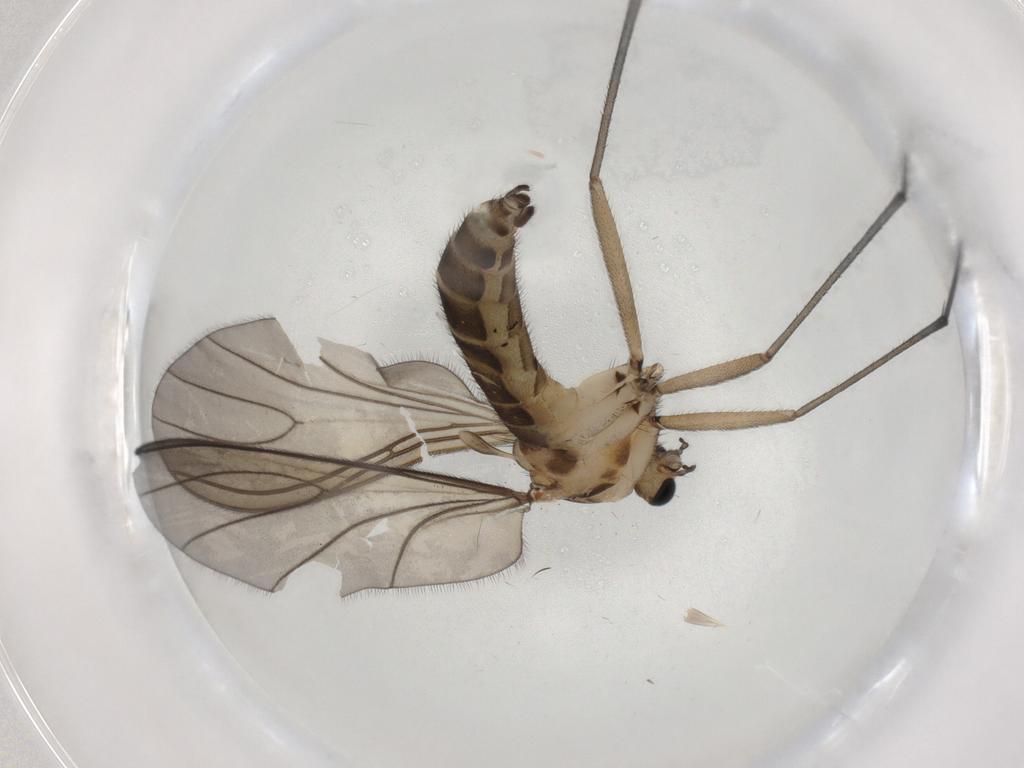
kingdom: Animalia
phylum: Arthropoda
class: Insecta
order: Diptera
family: Sciaridae
